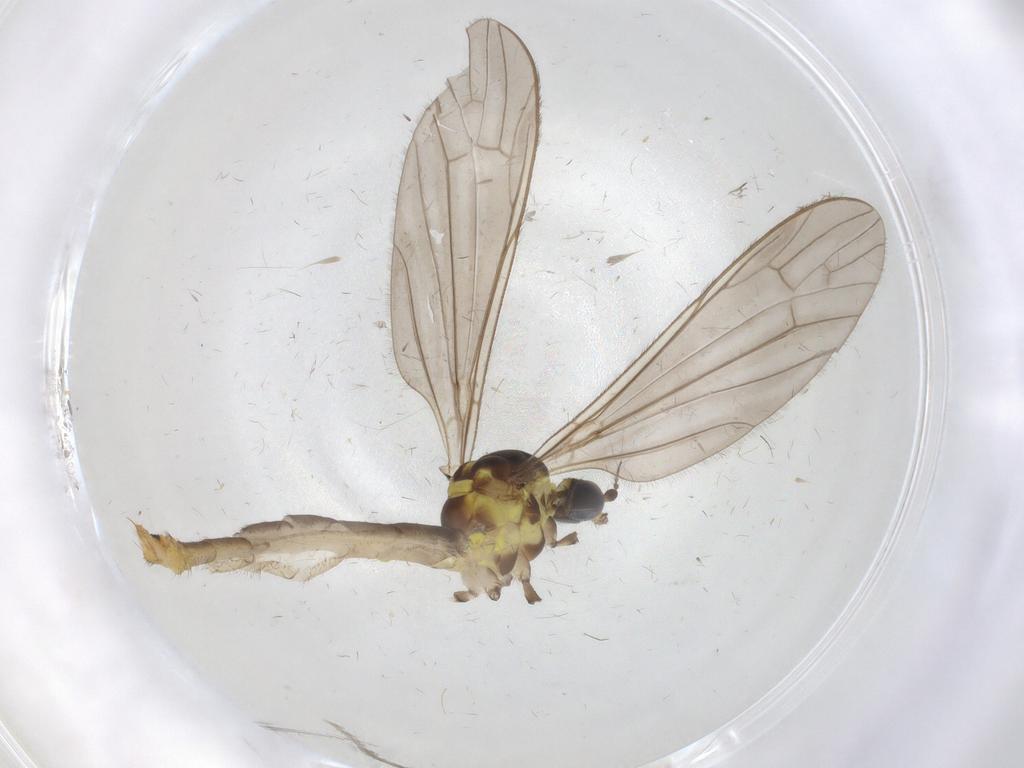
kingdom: Animalia
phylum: Arthropoda
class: Insecta
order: Diptera
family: Limoniidae
